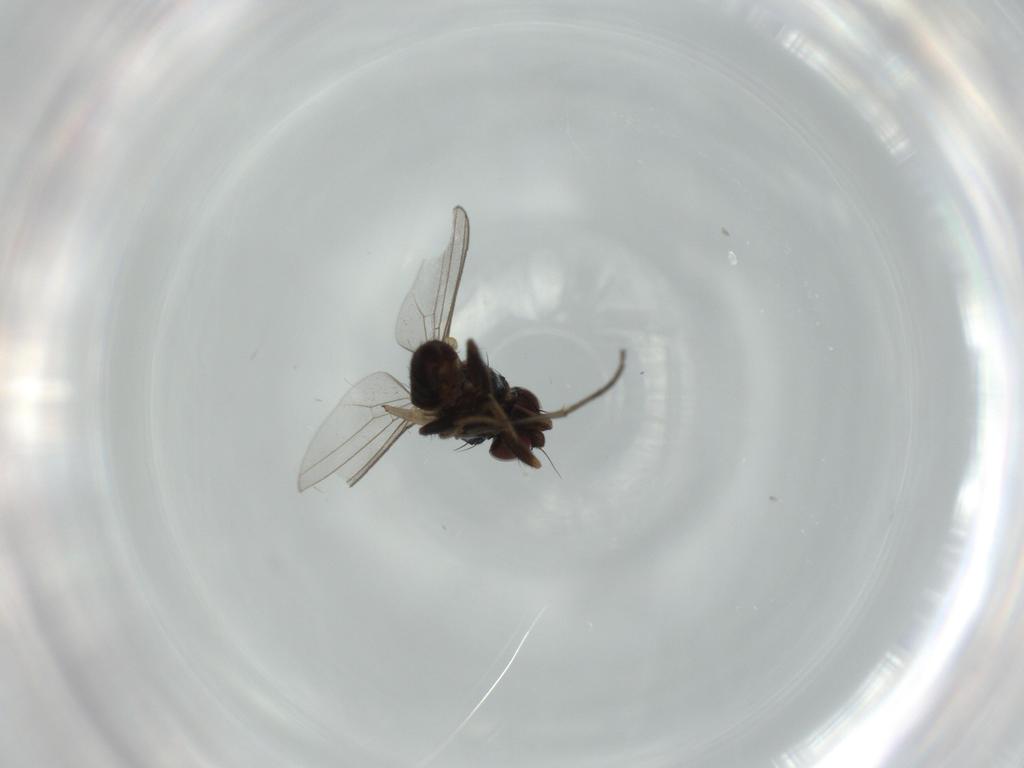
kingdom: Animalia
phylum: Arthropoda
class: Insecta
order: Diptera
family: Milichiidae
